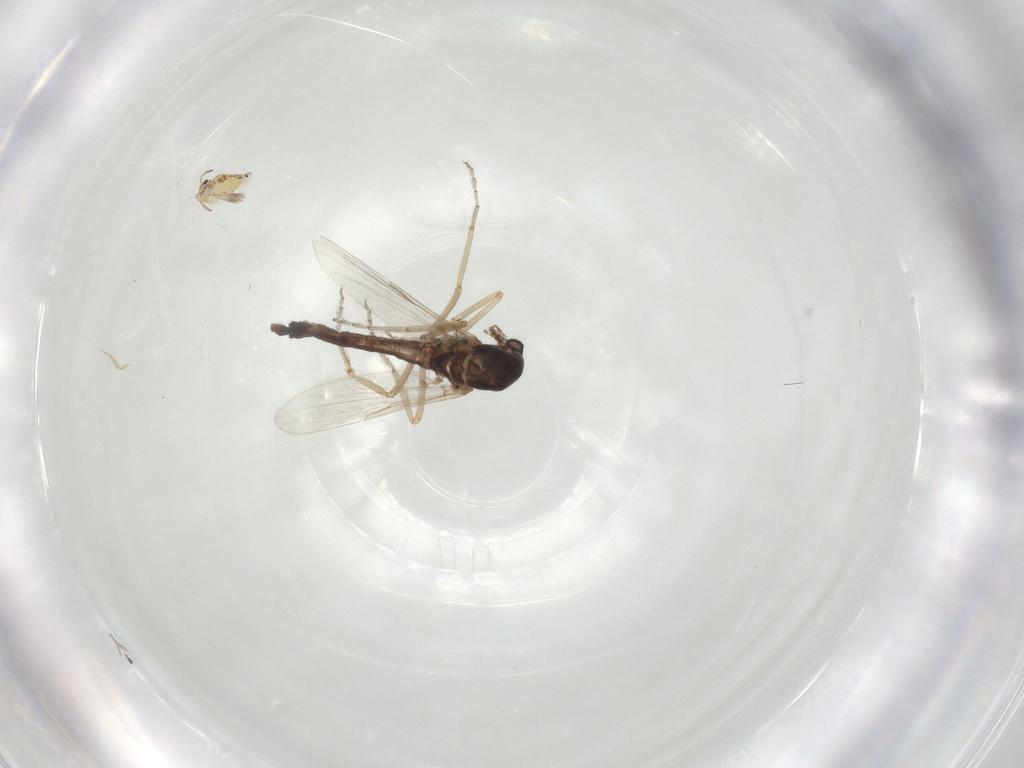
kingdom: Animalia
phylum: Arthropoda
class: Insecta
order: Diptera
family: Ceratopogonidae
